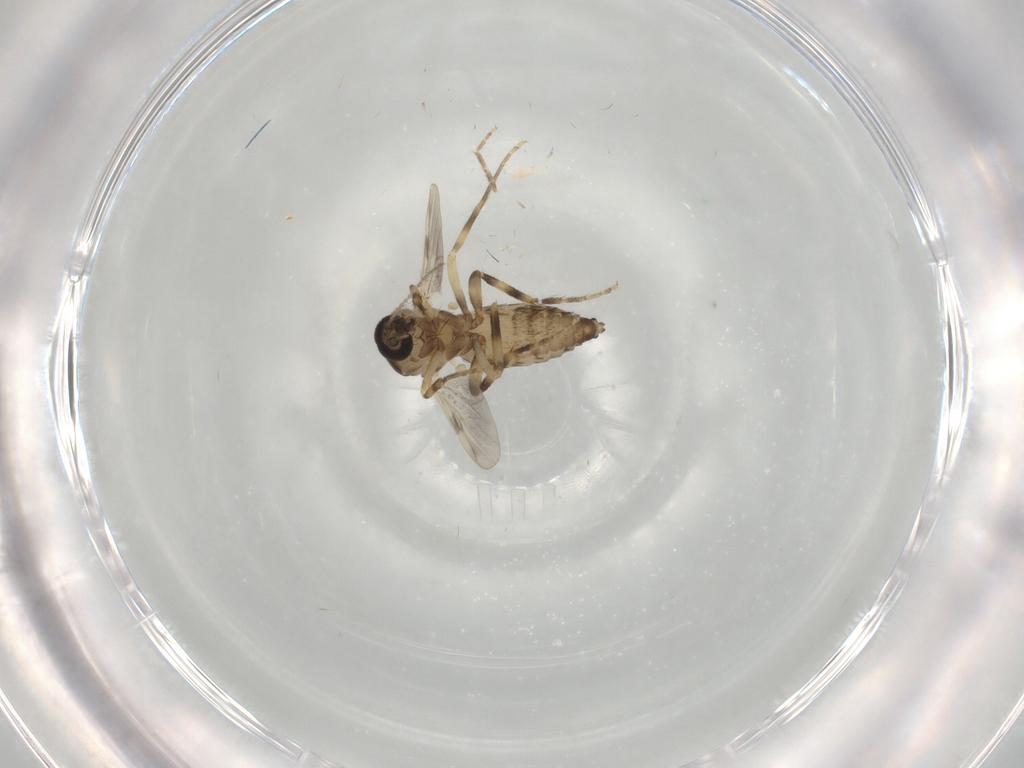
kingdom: Animalia
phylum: Arthropoda
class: Insecta
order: Diptera
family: Ceratopogonidae
